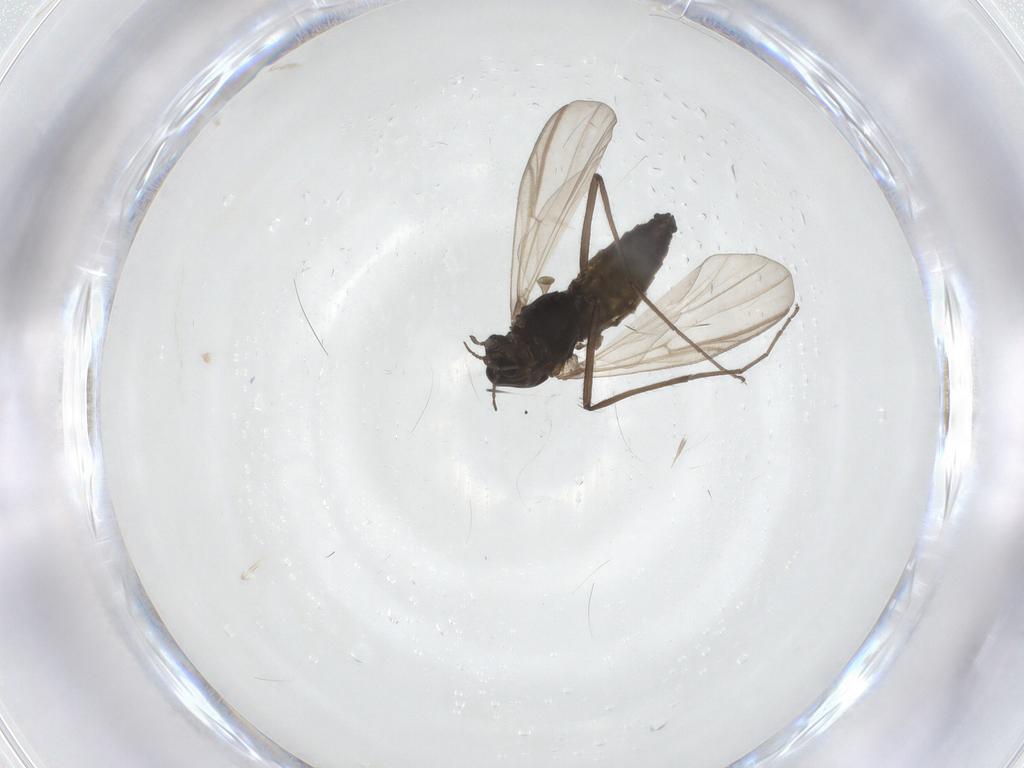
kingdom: Animalia
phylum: Arthropoda
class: Insecta
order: Diptera
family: Chironomidae
